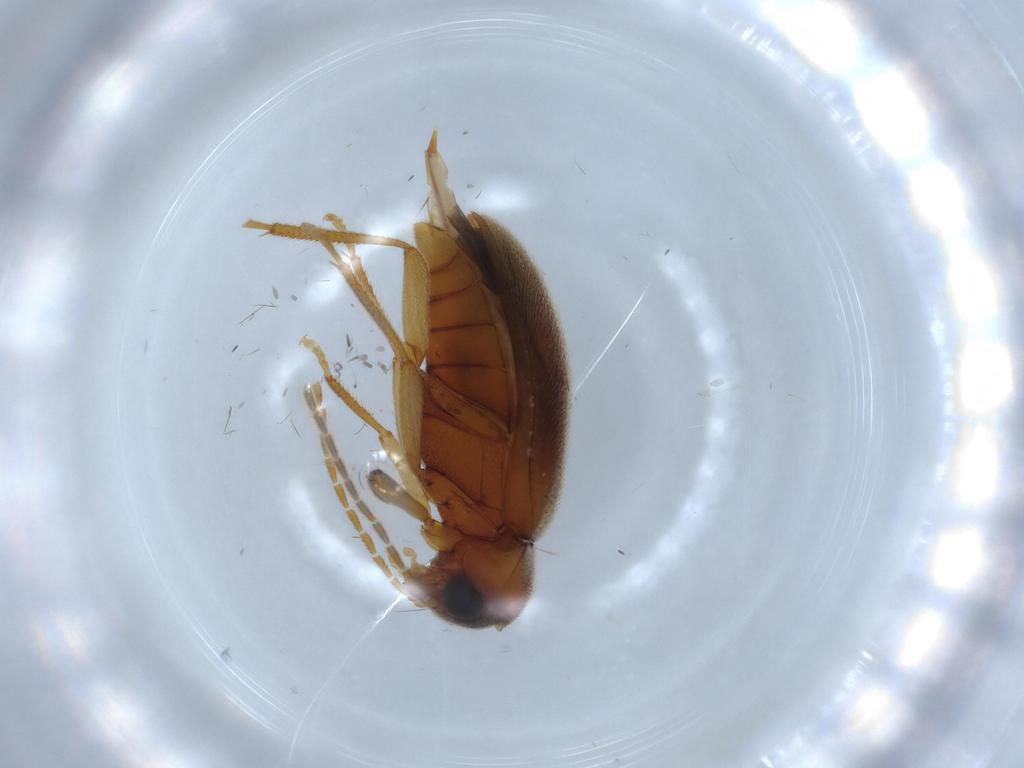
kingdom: Animalia
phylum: Arthropoda
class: Insecta
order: Coleoptera
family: Ptilodactylidae
